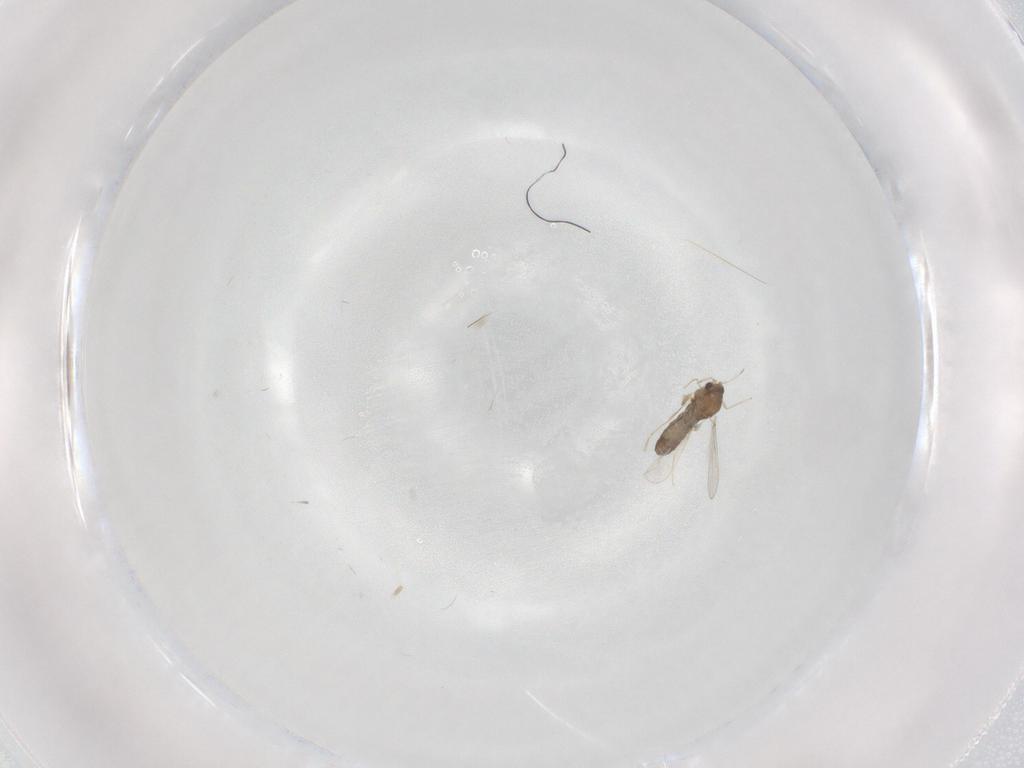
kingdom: Animalia
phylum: Arthropoda
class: Insecta
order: Diptera
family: Chironomidae
